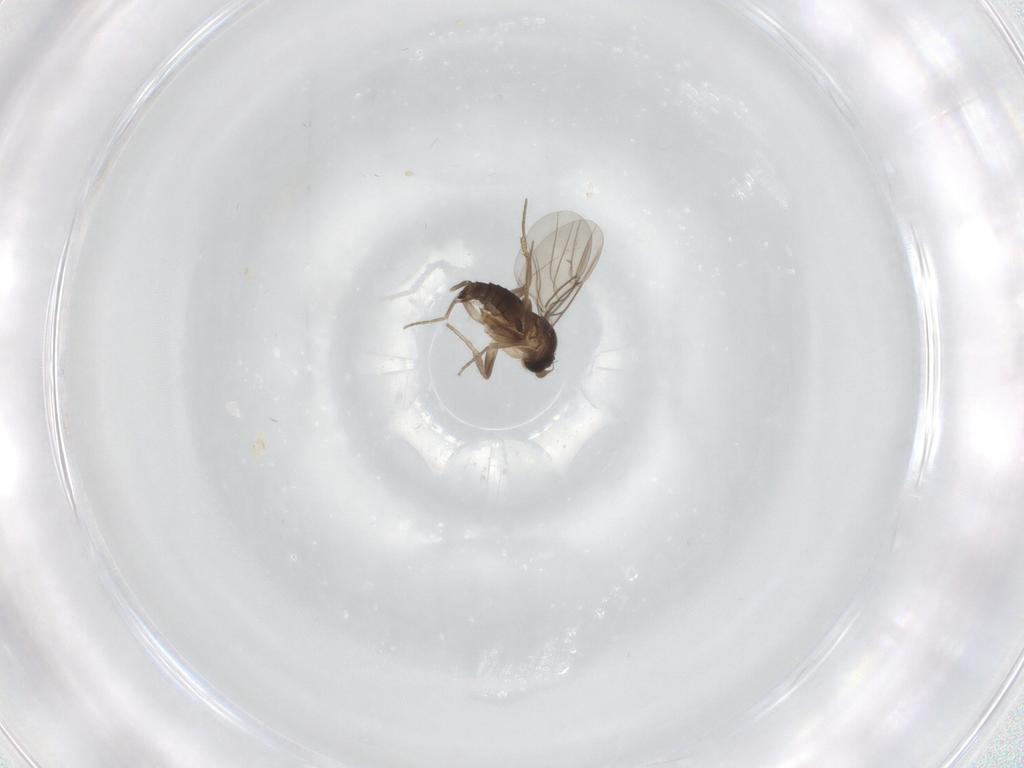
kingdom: Animalia
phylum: Arthropoda
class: Insecta
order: Diptera
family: Phoridae
